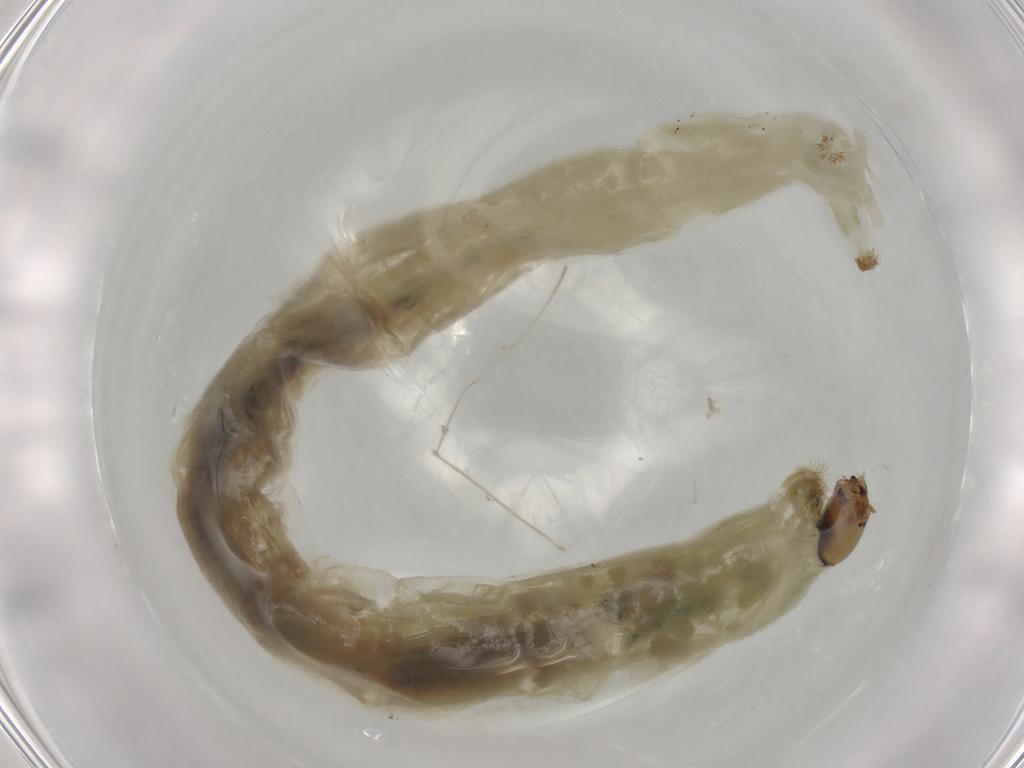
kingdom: Animalia
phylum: Arthropoda
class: Insecta
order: Diptera
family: Chironomidae
